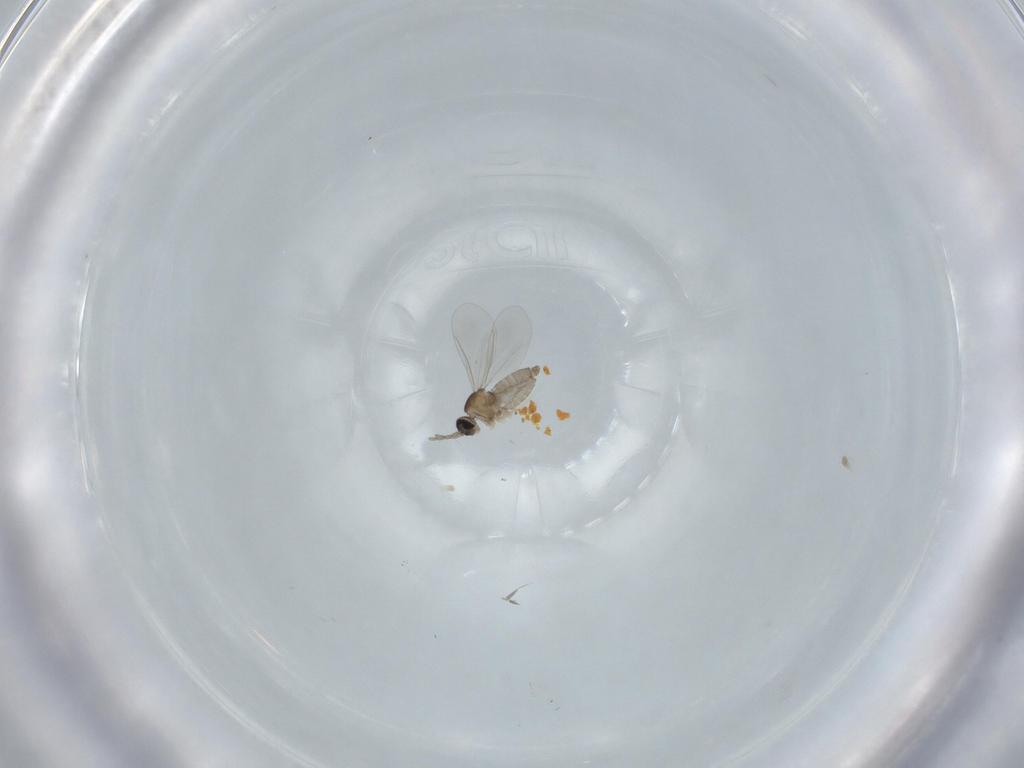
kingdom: Animalia
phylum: Arthropoda
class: Insecta
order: Diptera
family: Cecidomyiidae
